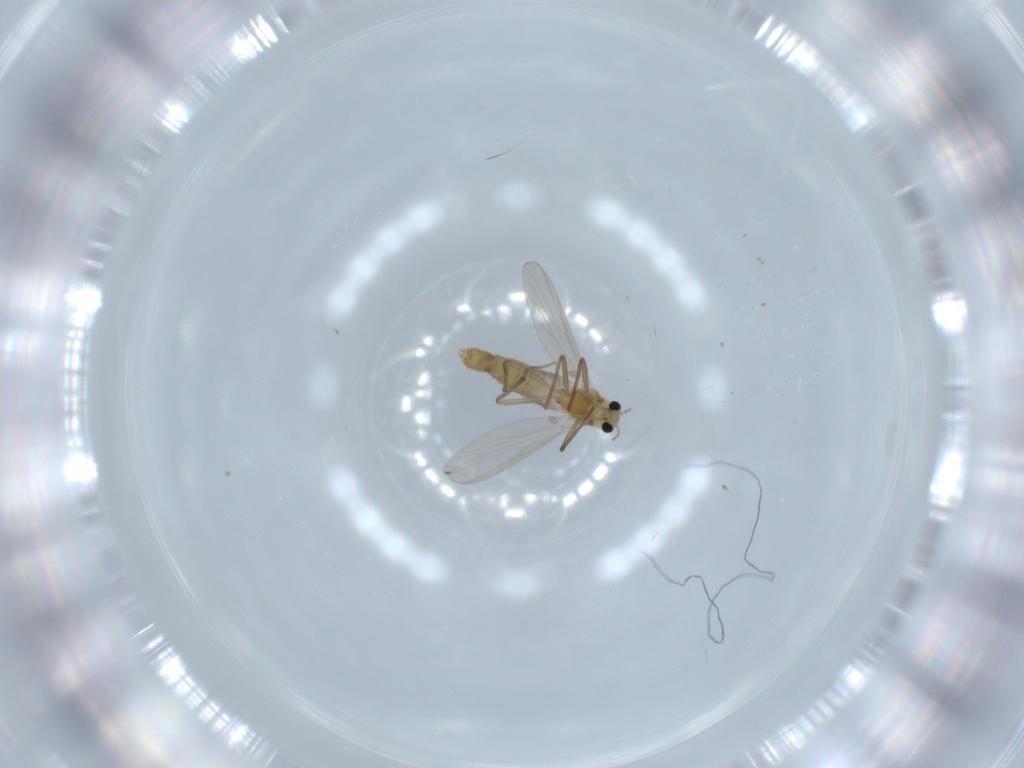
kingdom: Animalia
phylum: Arthropoda
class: Insecta
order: Diptera
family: Chironomidae
